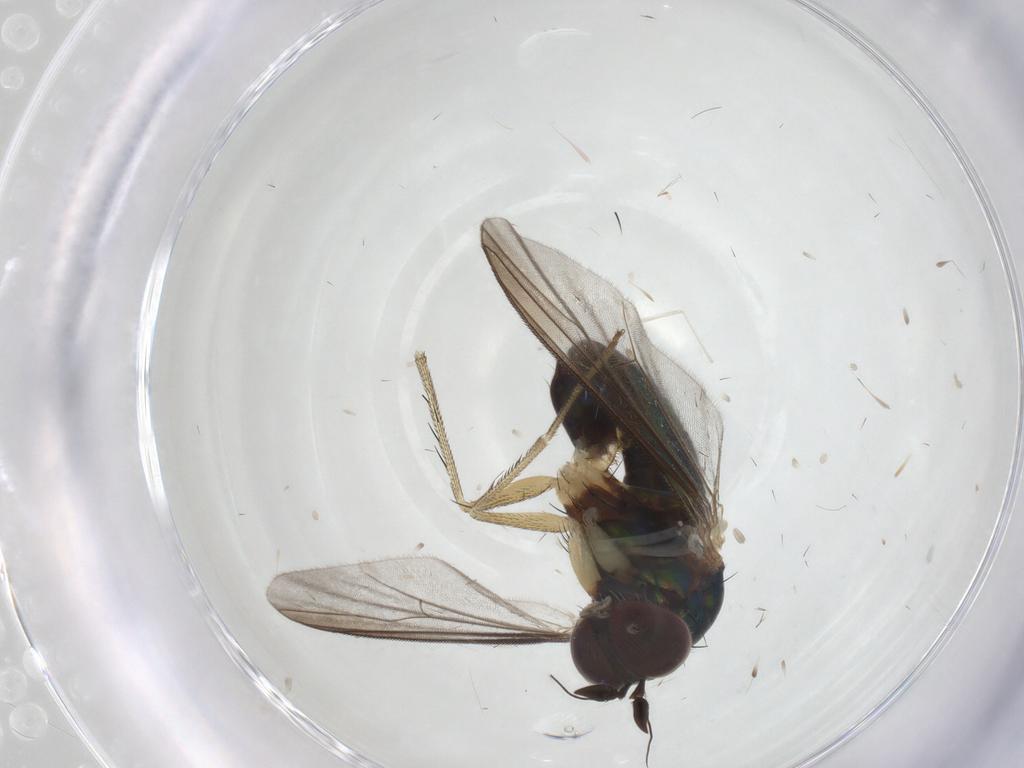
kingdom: Animalia
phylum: Arthropoda
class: Insecta
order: Diptera
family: Dolichopodidae
